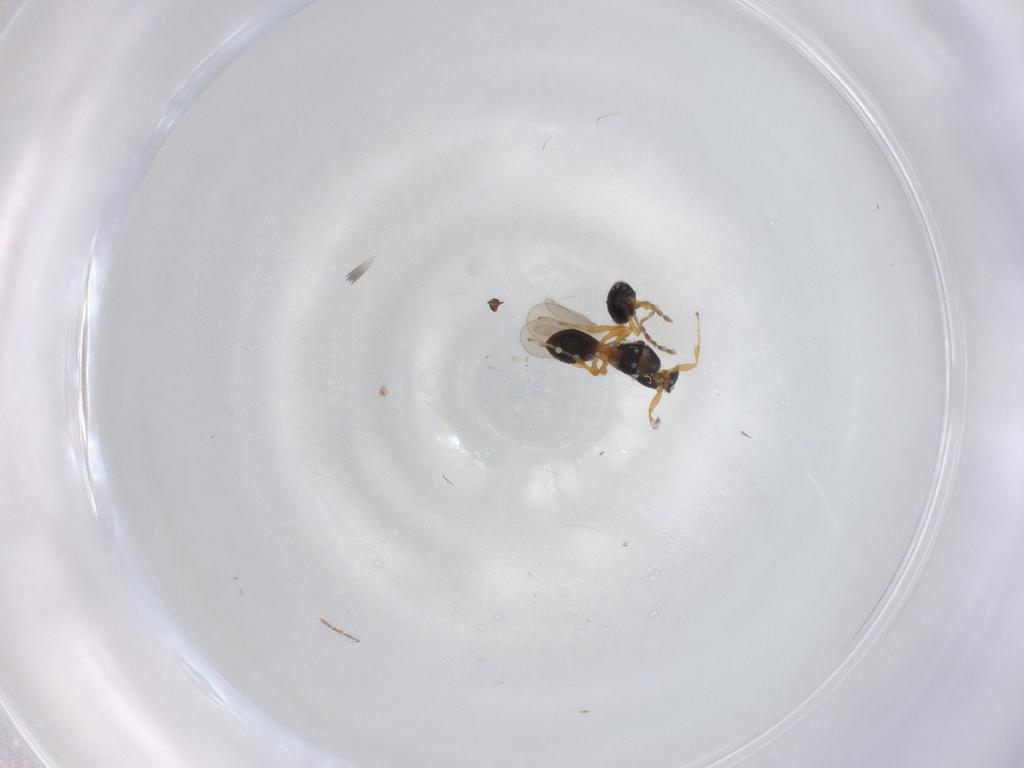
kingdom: Animalia
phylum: Arthropoda
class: Insecta
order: Hymenoptera
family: Platygastridae
